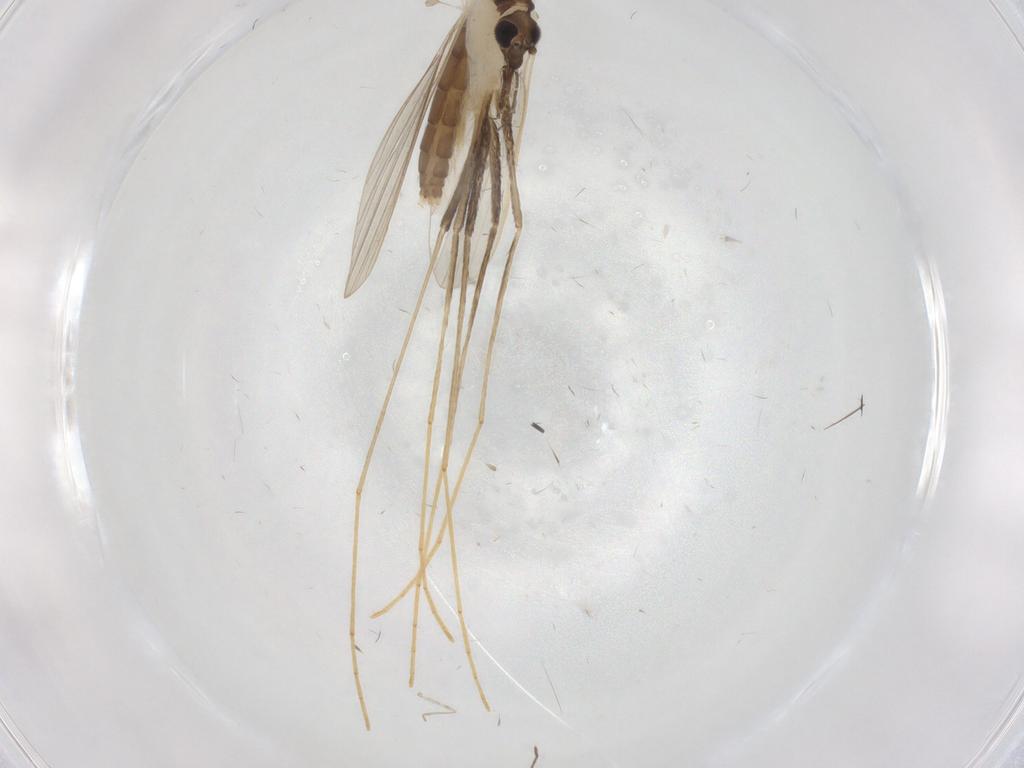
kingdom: Animalia
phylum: Arthropoda
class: Insecta
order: Diptera
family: Psychodidae
